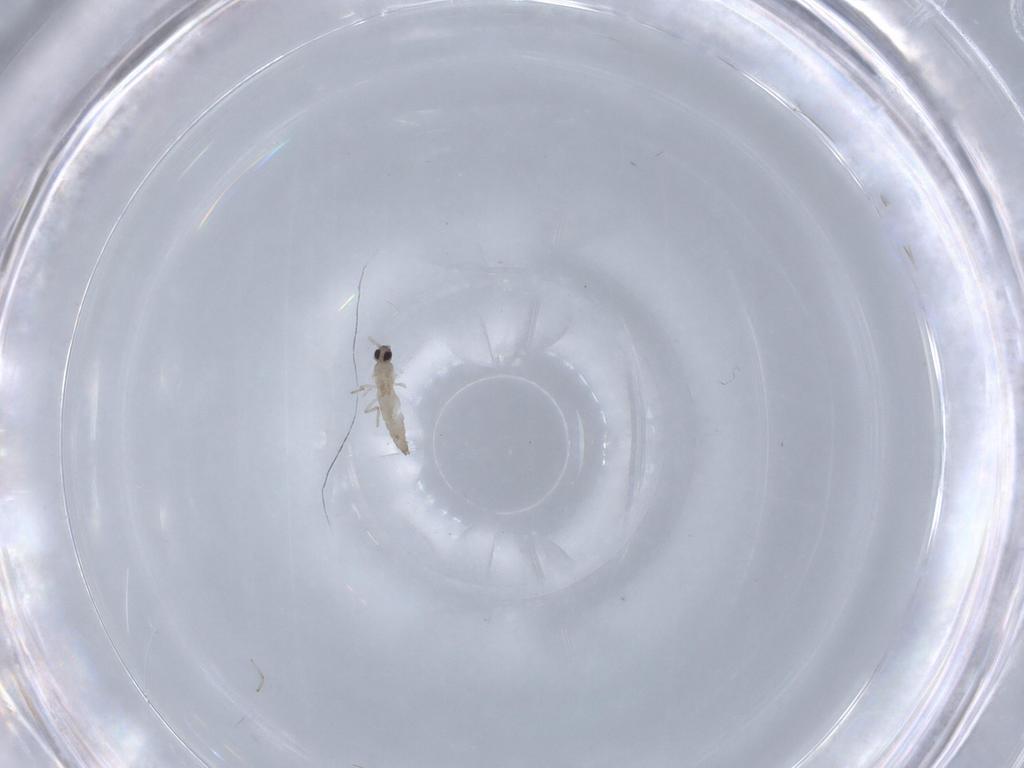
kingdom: Animalia
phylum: Arthropoda
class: Insecta
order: Diptera
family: Cecidomyiidae
